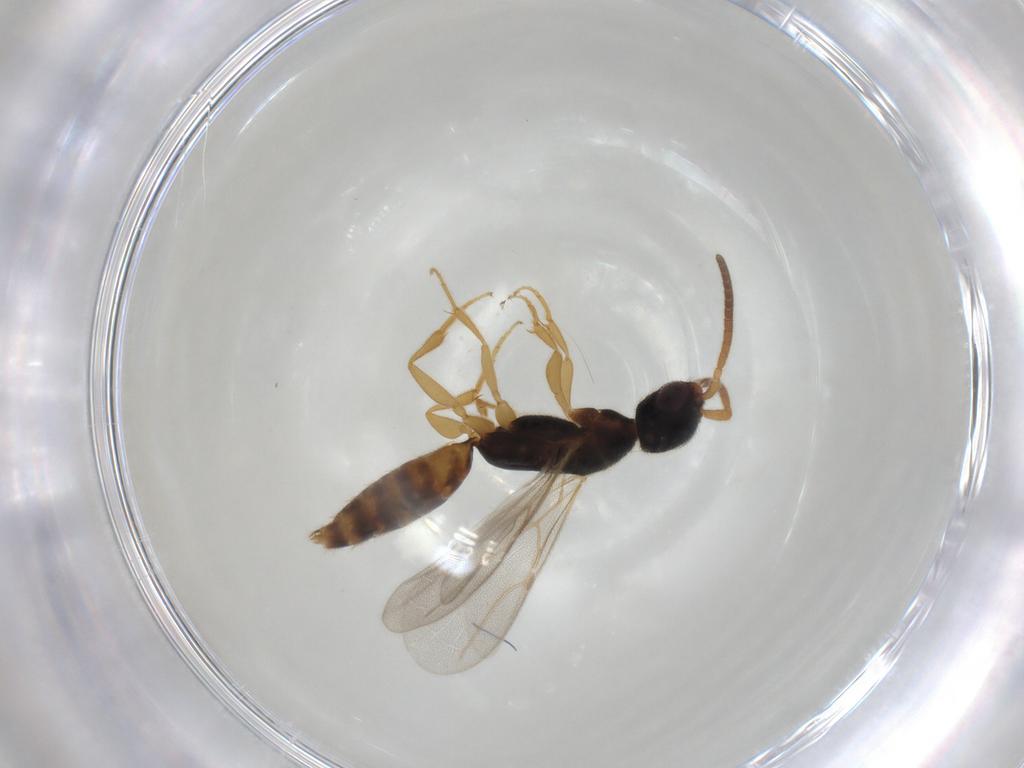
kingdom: Animalia
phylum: Arthropoda
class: Insecta
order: Hymenoptera
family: Bethylidae
